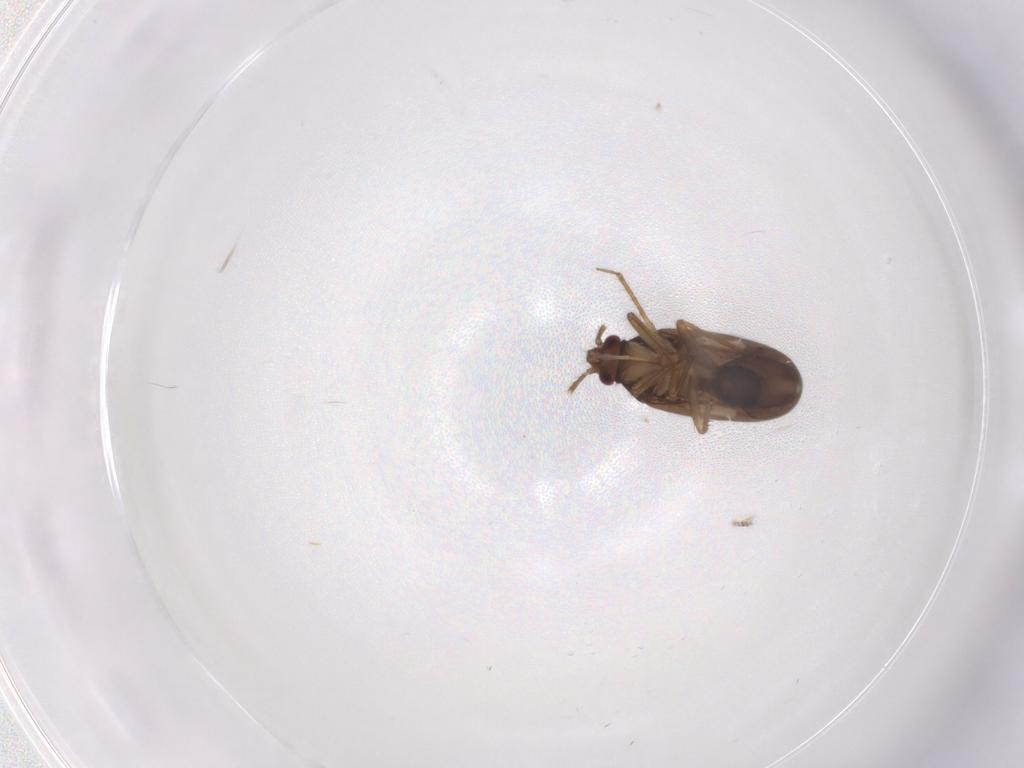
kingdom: Animalia
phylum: Arthropoda
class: Insecta
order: Hemiptera
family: Ceratocombidae
